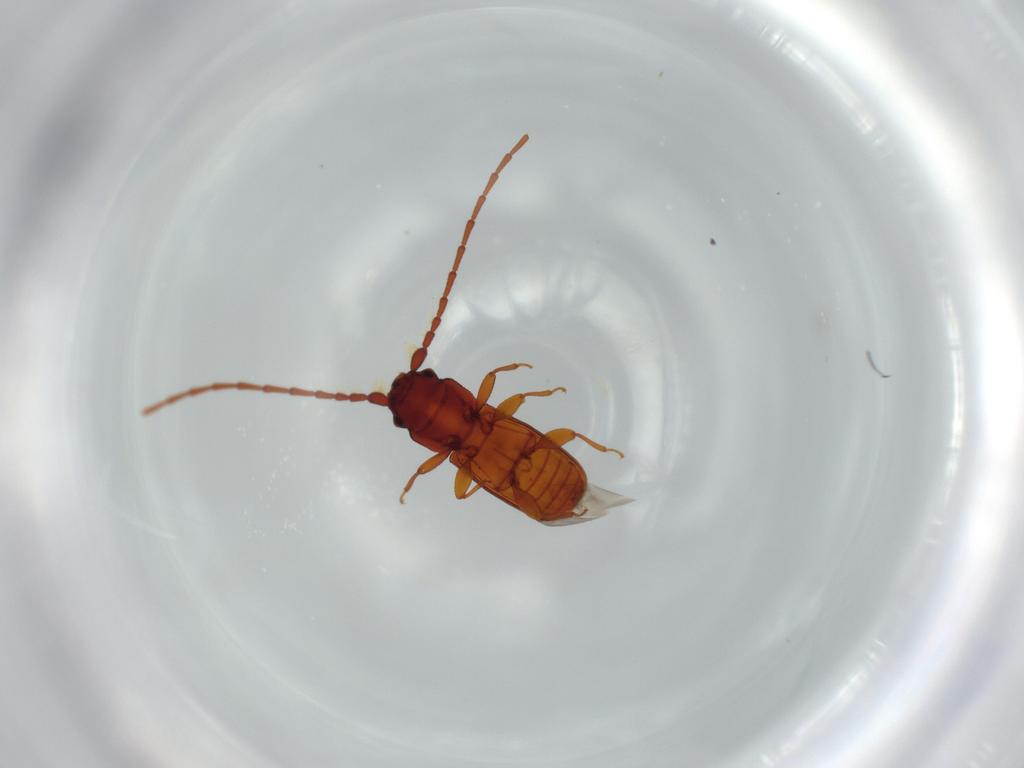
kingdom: Animalia
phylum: Arthropoda
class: Insecta
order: Coleoptera
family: Laemophloeidae
